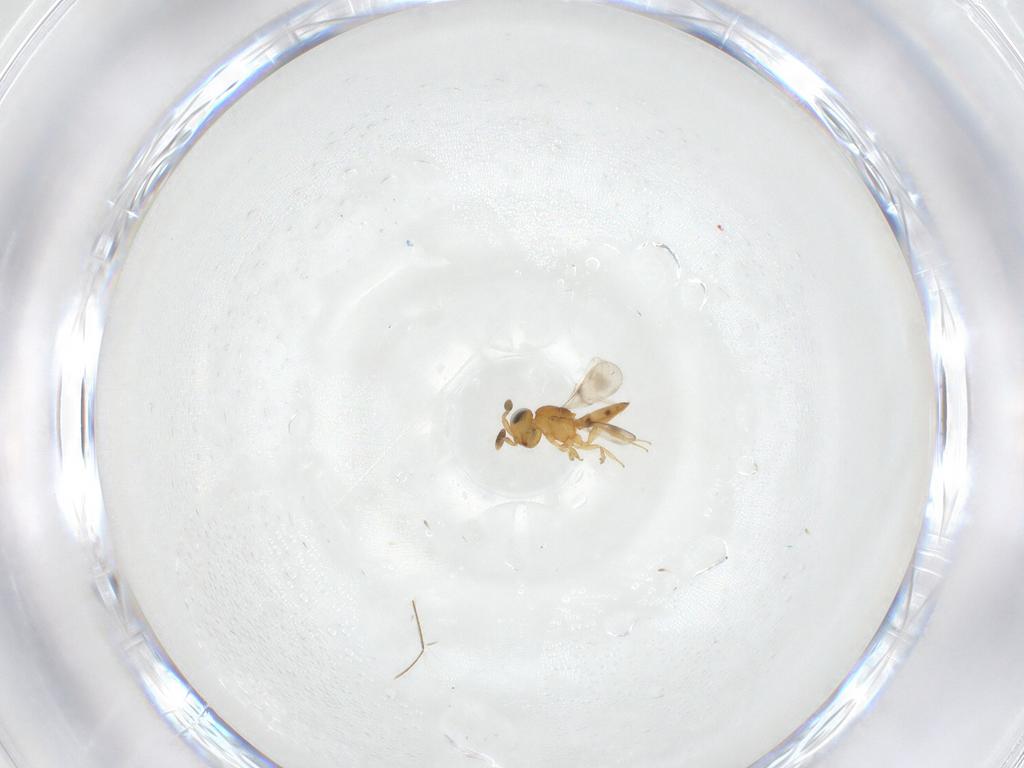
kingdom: Animalia
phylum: Arthropoda
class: Insecta
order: Hymenoptera
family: Scelionidae
